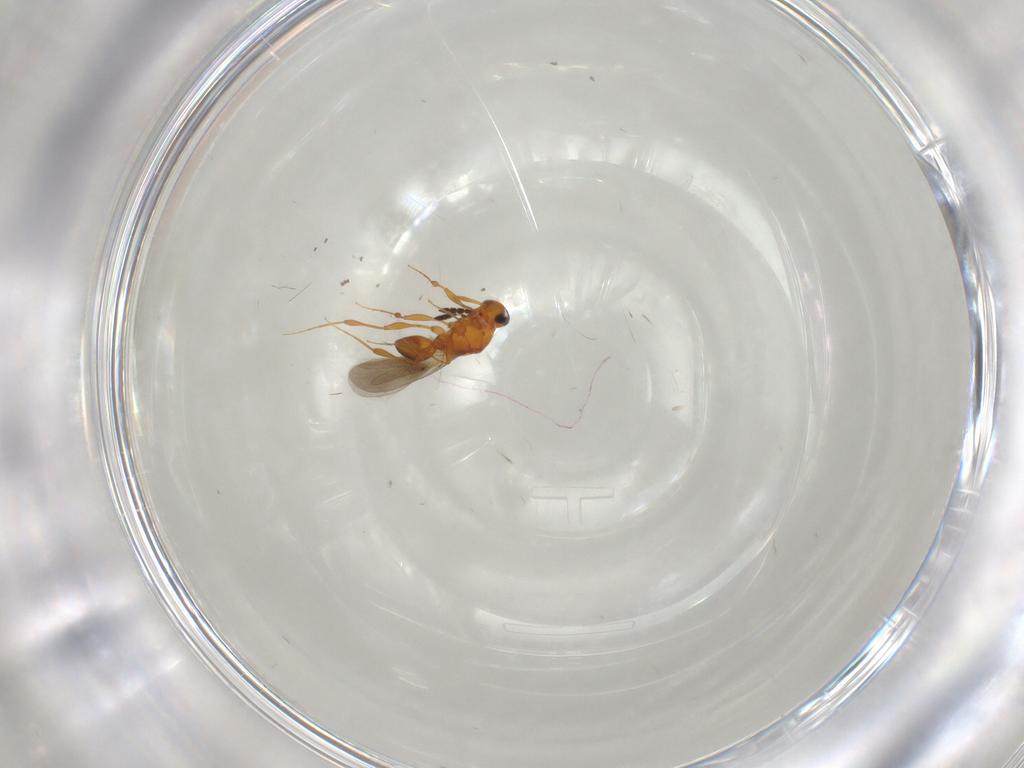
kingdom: Animalia
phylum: Arthropoda
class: Insecta
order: Hymenoptera
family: Platygastridae
